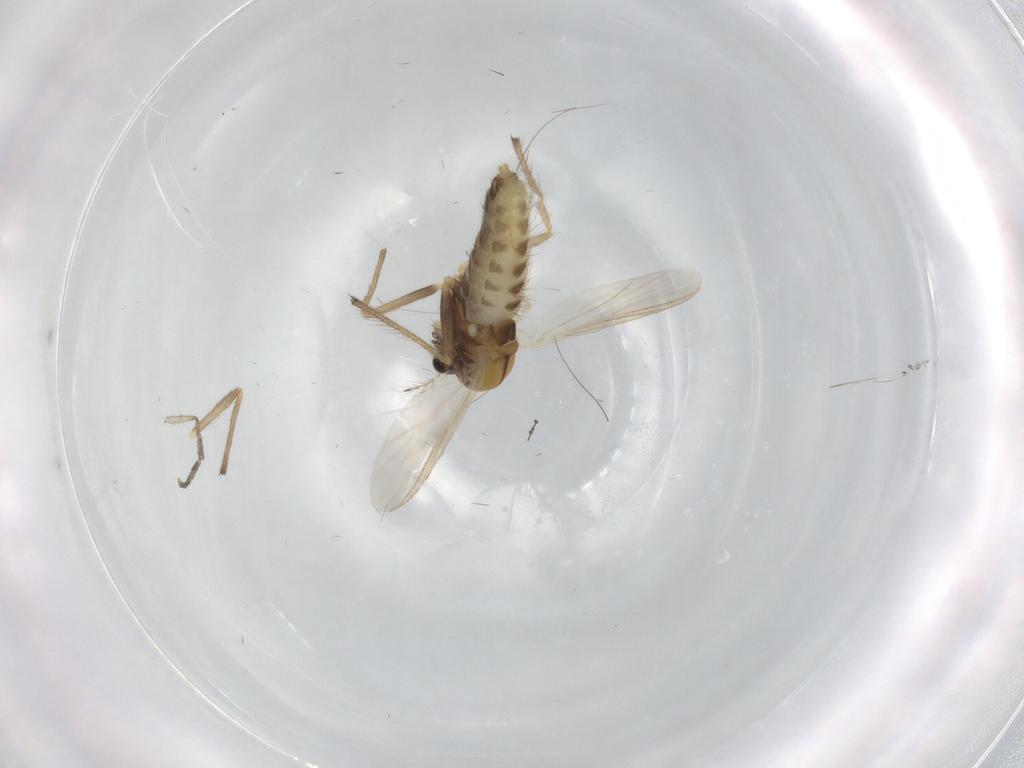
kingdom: Animalia
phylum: Arthropoda
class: Insecta
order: Diptera
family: Chironomidae
